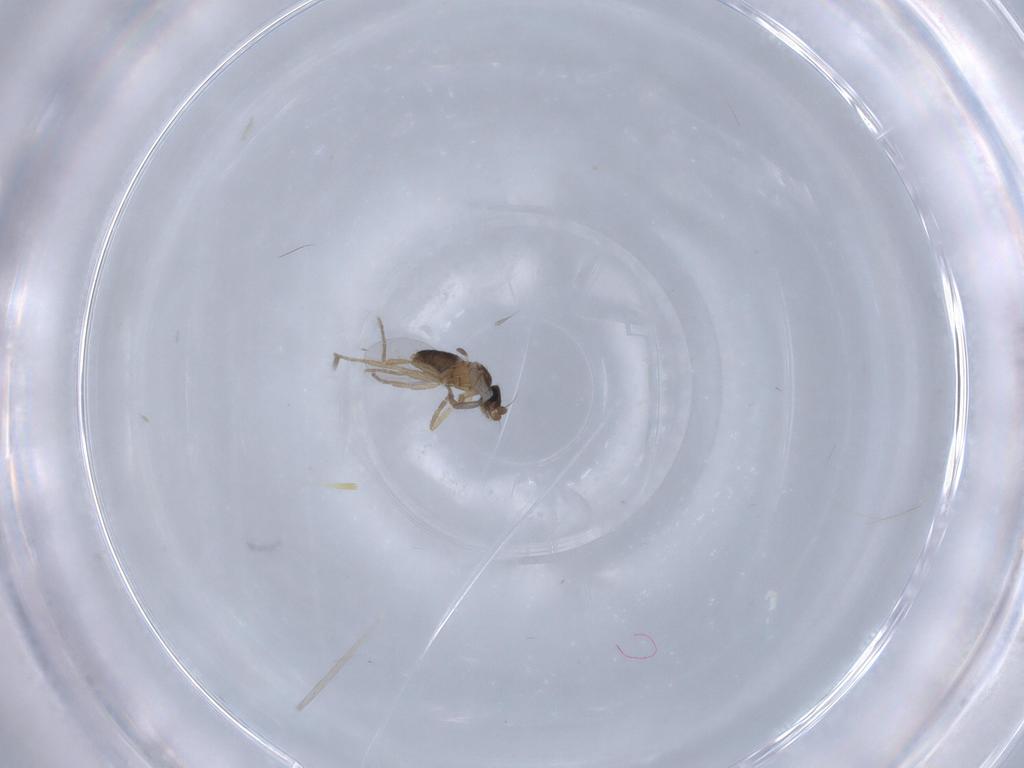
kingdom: Animalia
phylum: Arthropoda
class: Insecta
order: Diptera
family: Phoridae
